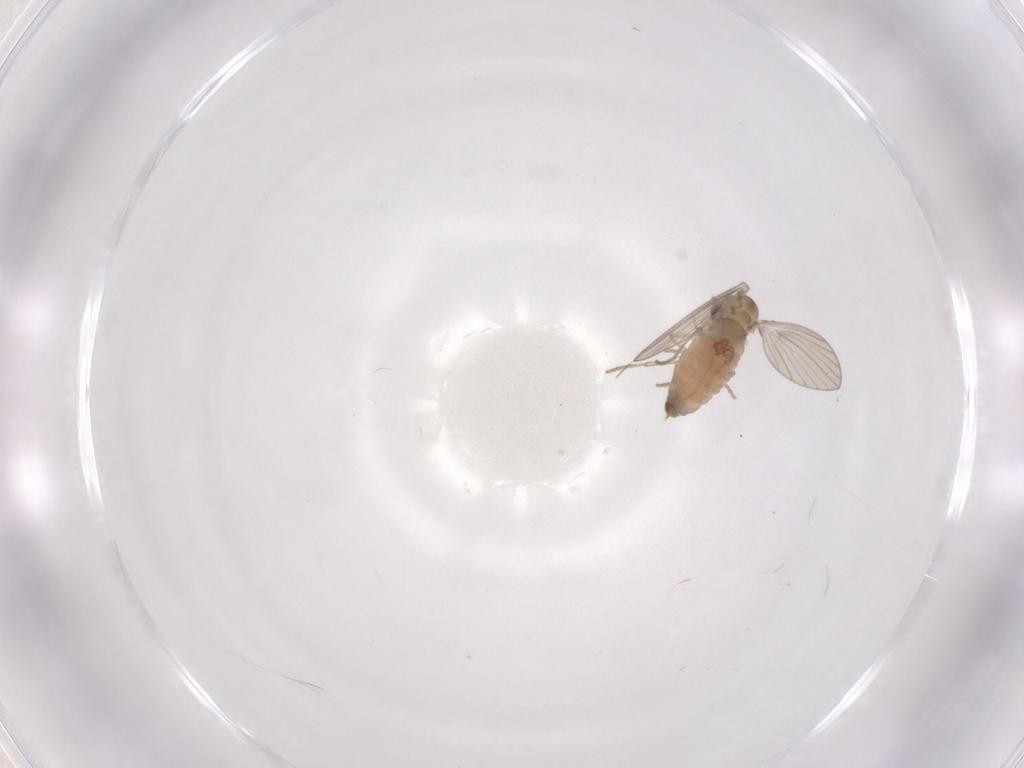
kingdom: Animalia
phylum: Arthropoda
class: Insecta
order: Diptera
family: Psychodidae
